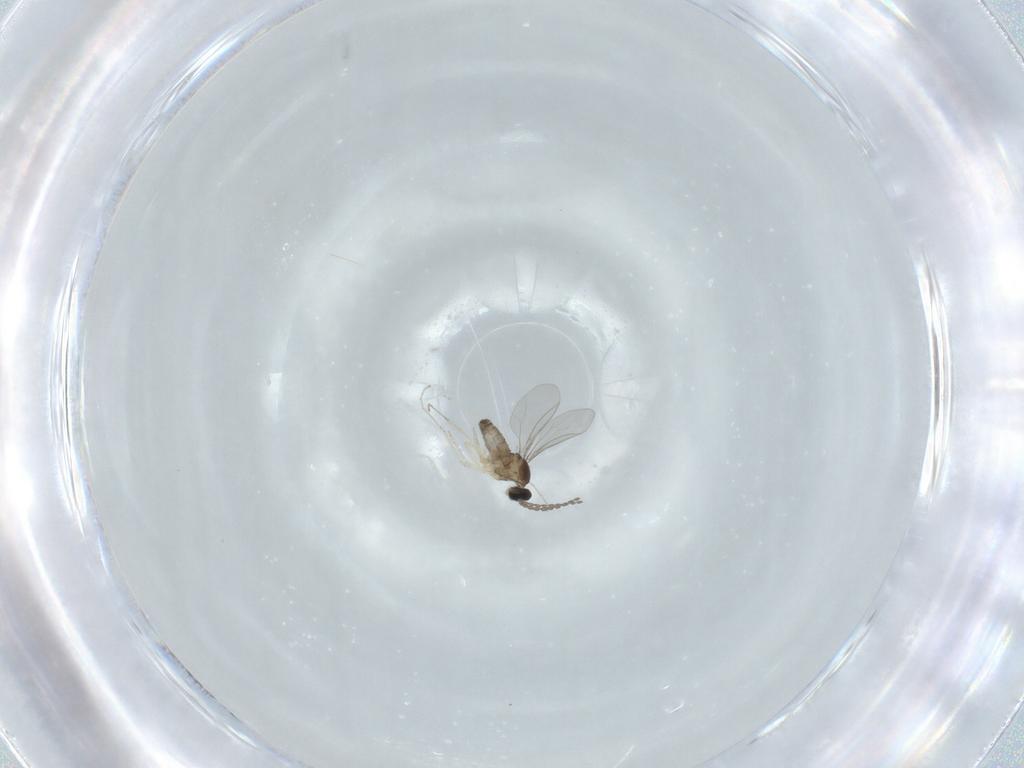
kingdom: Animalia
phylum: Arthropoda
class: Insecta
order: Diptera
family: Cecidomyiidae
